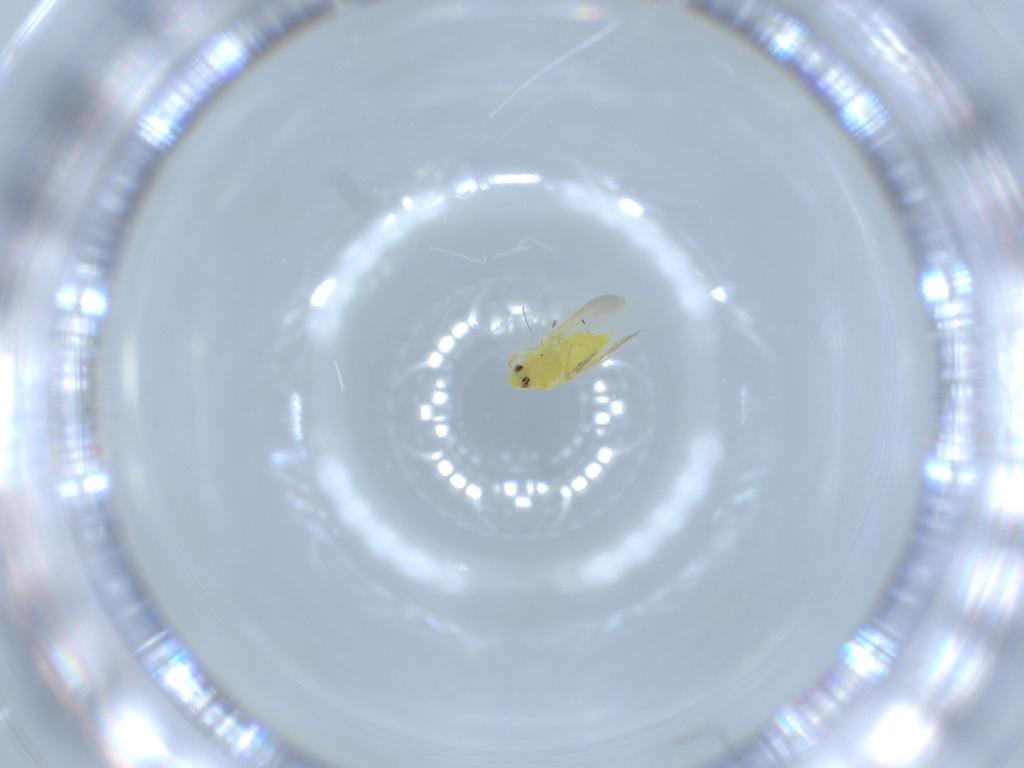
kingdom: Animalia
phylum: Arthropoda
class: Insecta
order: Hemiptera
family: Aleyrodidae
